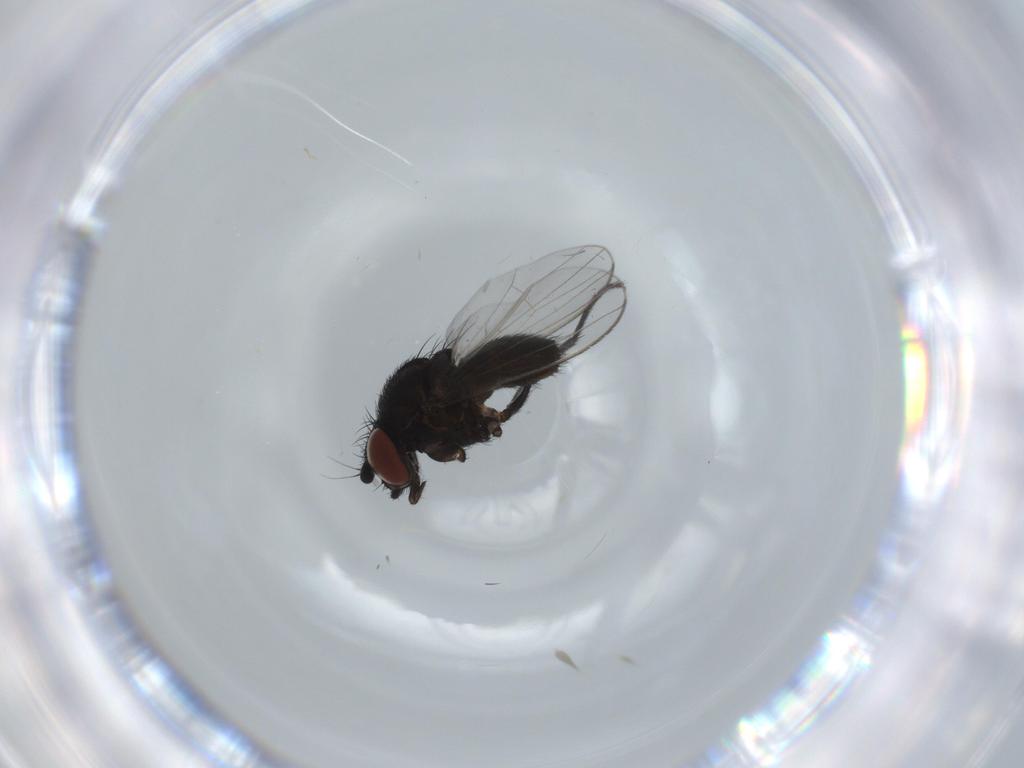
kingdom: Animalia
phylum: Arthropoda
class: Insecta
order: Diptera
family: Milichiidae
